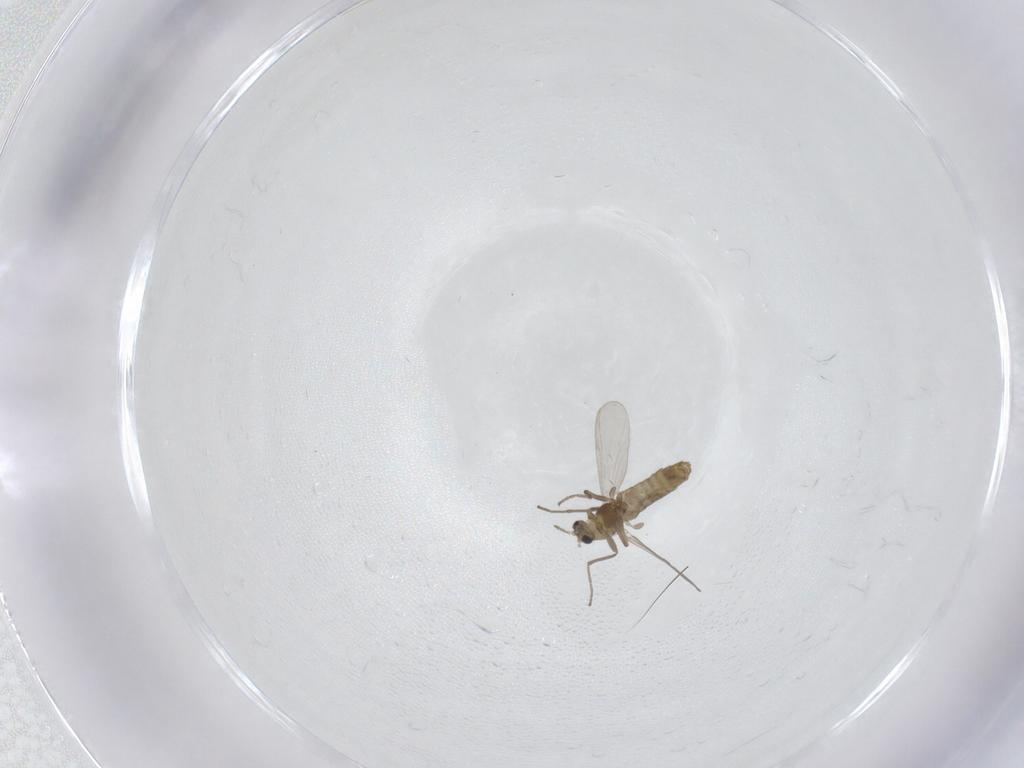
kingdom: Animalia
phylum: Arthropoda
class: Insecta
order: Diptera
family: Chironomidae
